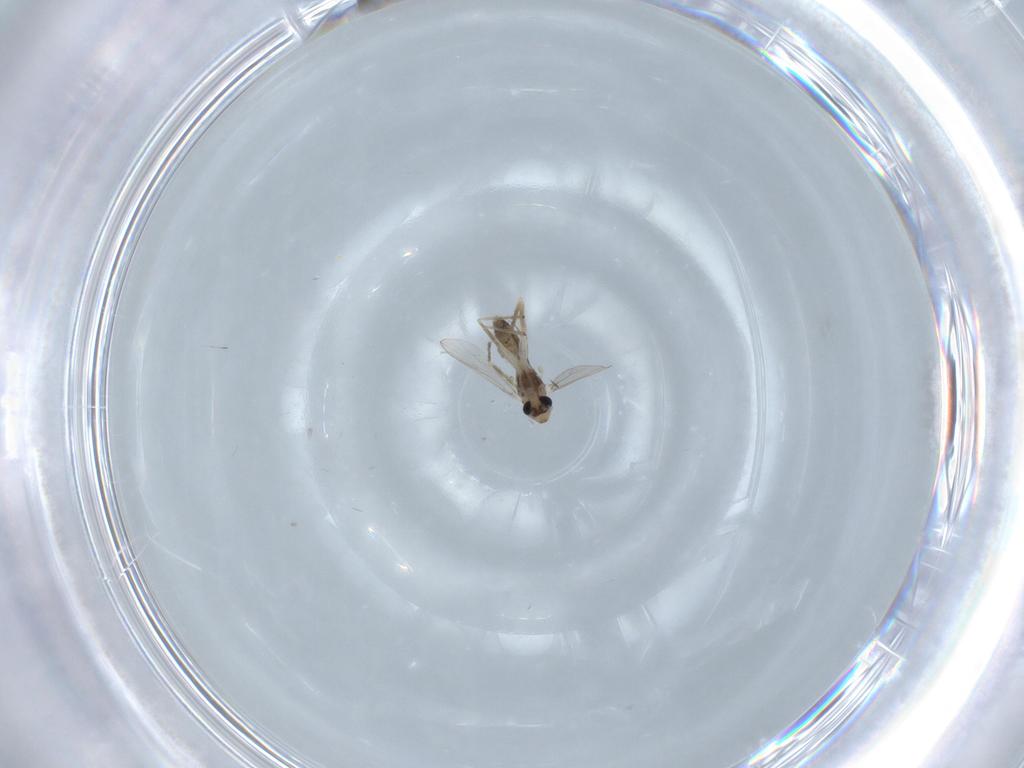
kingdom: Animalia
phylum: Arthropoda
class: Insecta
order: Diptera
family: Chironomidae
